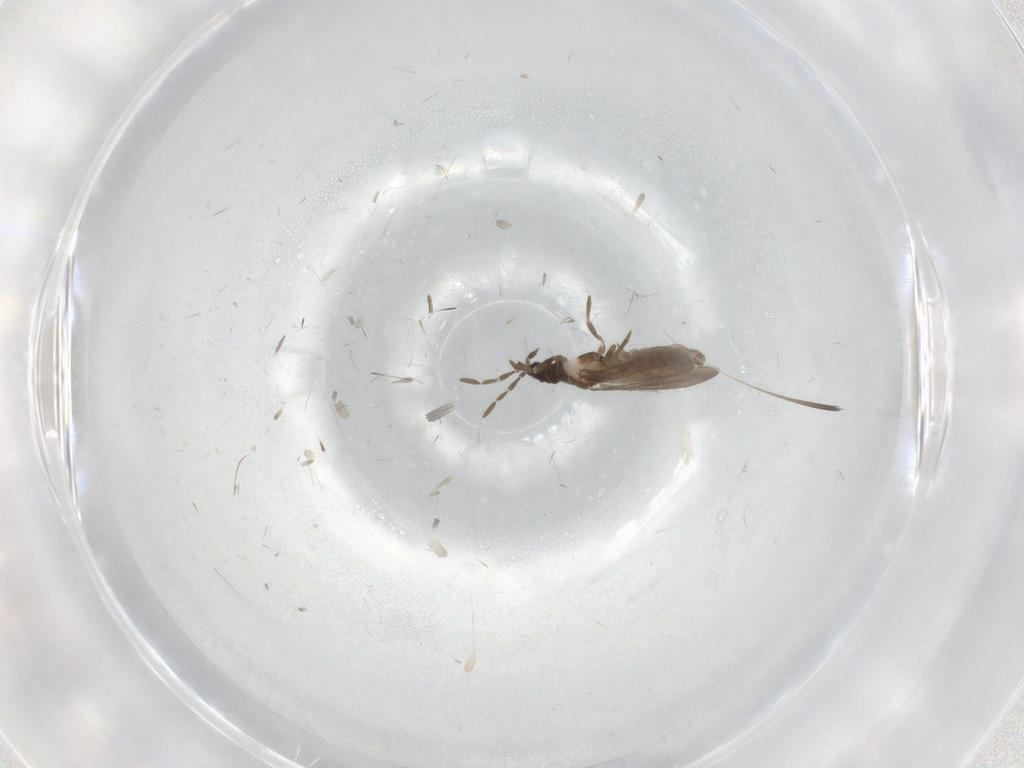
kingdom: Animalia
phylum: Arthropoda
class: Insecta
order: Hemiptera
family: Enicocephalidae
